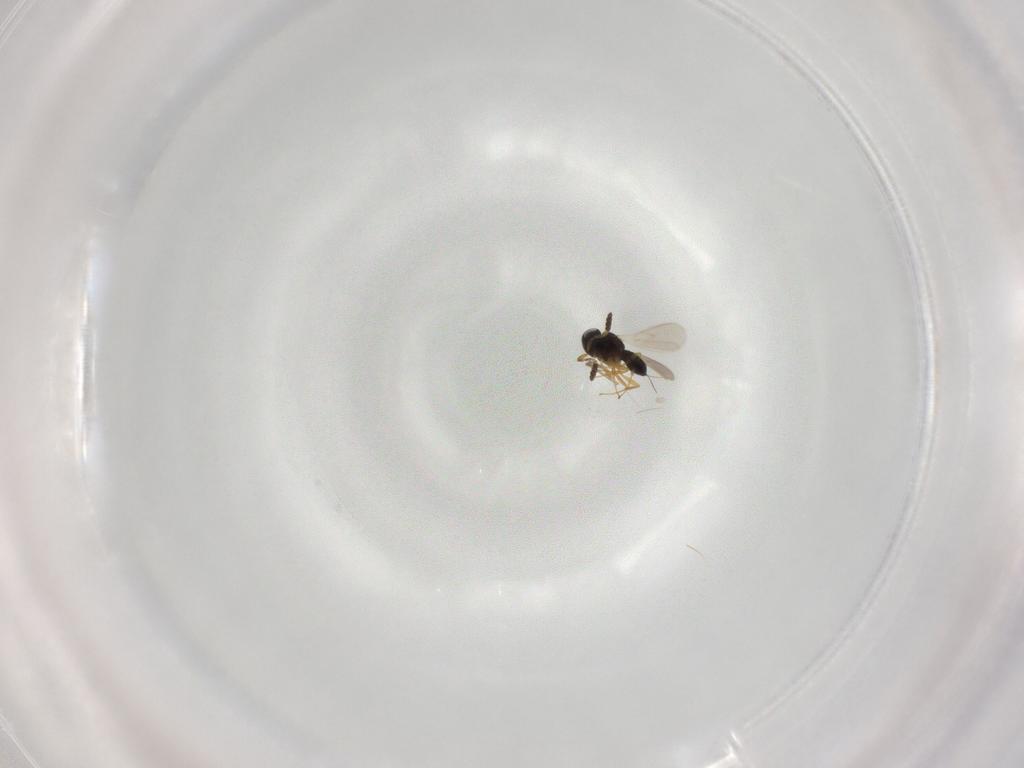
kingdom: Animalia
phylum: Arthropoda
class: Insecta
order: Hymenoptera
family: Scelionidae
